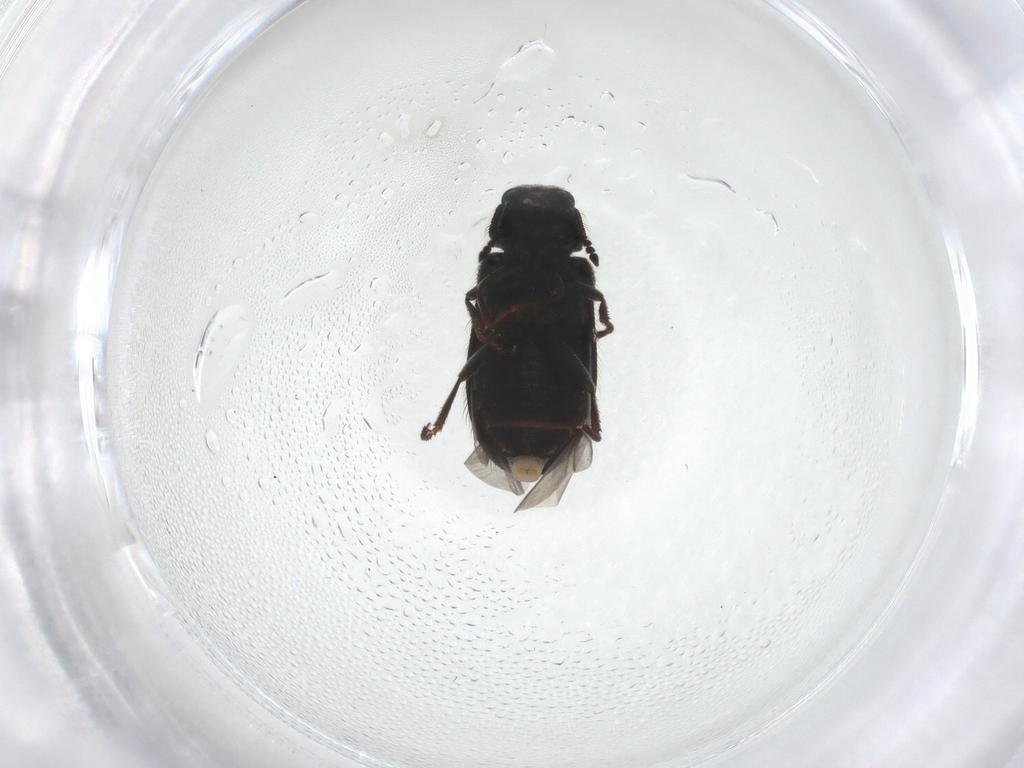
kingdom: Animalia
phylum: Arthropoda
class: Insecta
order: Coleoptera
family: Melyridae
